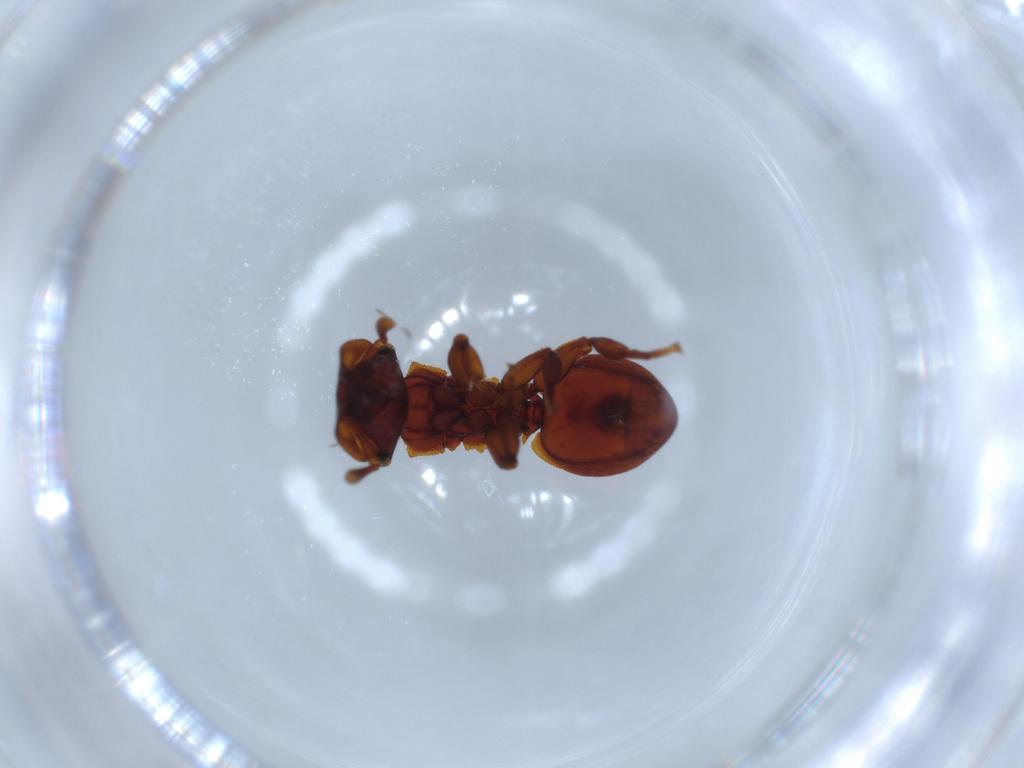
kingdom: Animalia
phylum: Arthropoda
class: Insecta
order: Hymenoptera
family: Formicidae
